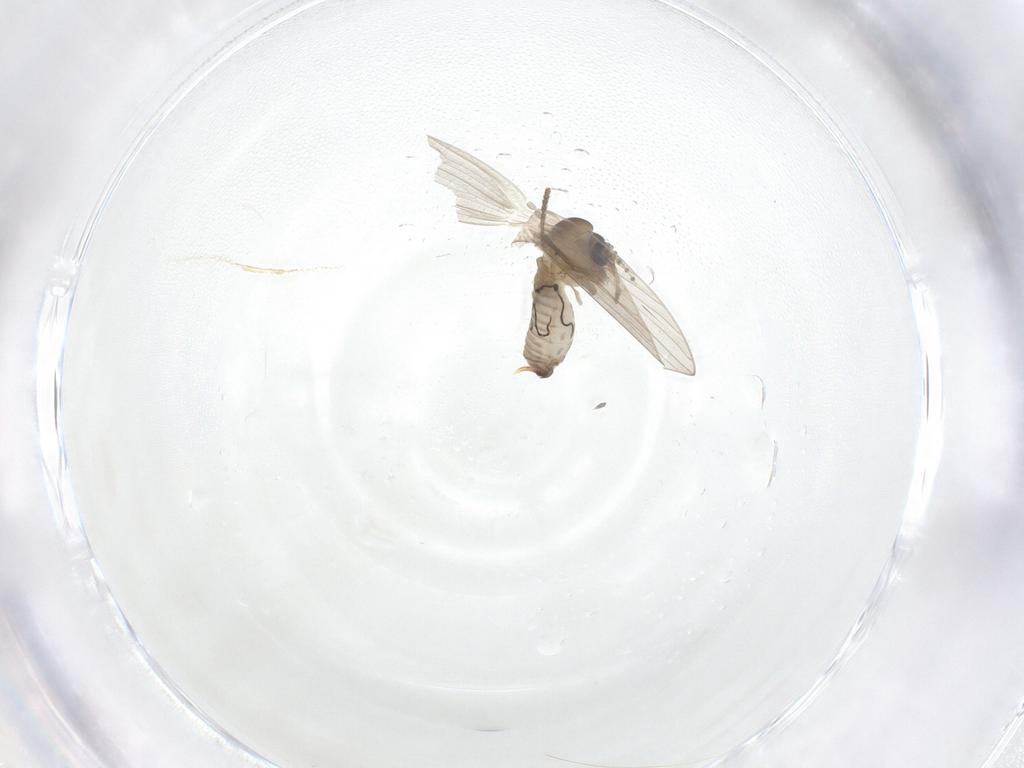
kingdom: Animalia
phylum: Arthropoda
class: Insecta
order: Diptera
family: Psychodidae
